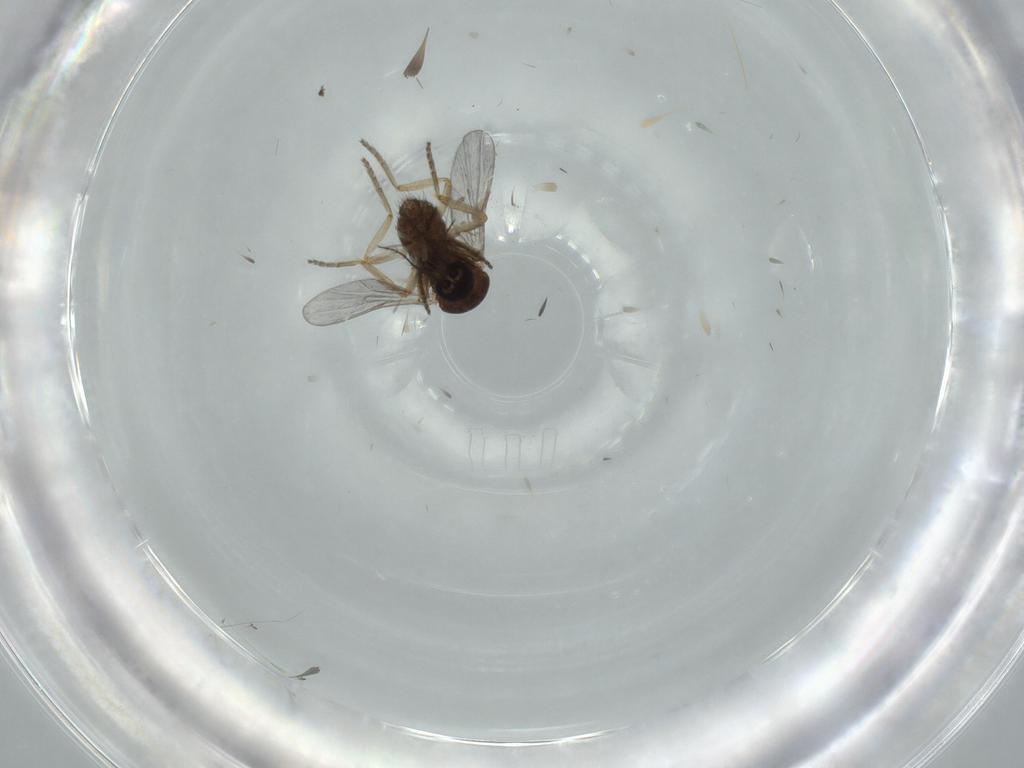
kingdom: Animalia
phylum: Arthropoda
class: Insecta
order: Diptera
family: Ceratopogonidae
